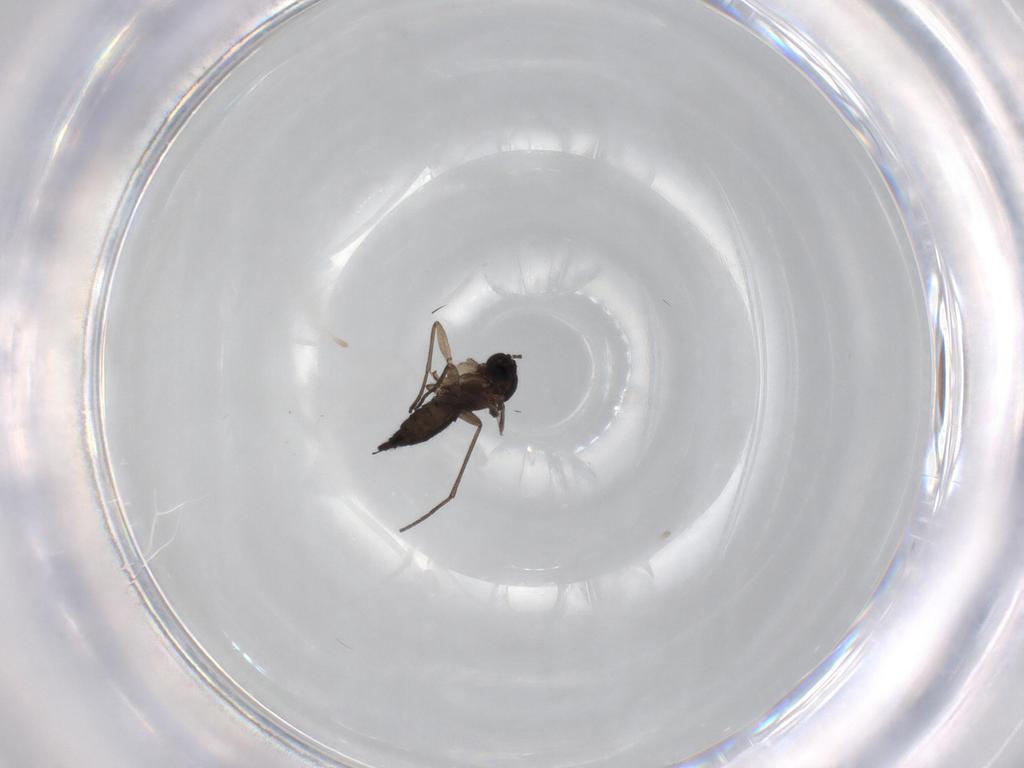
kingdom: Animalia
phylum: Arthropoda
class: Insecta
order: Diptera
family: Sciaridae
